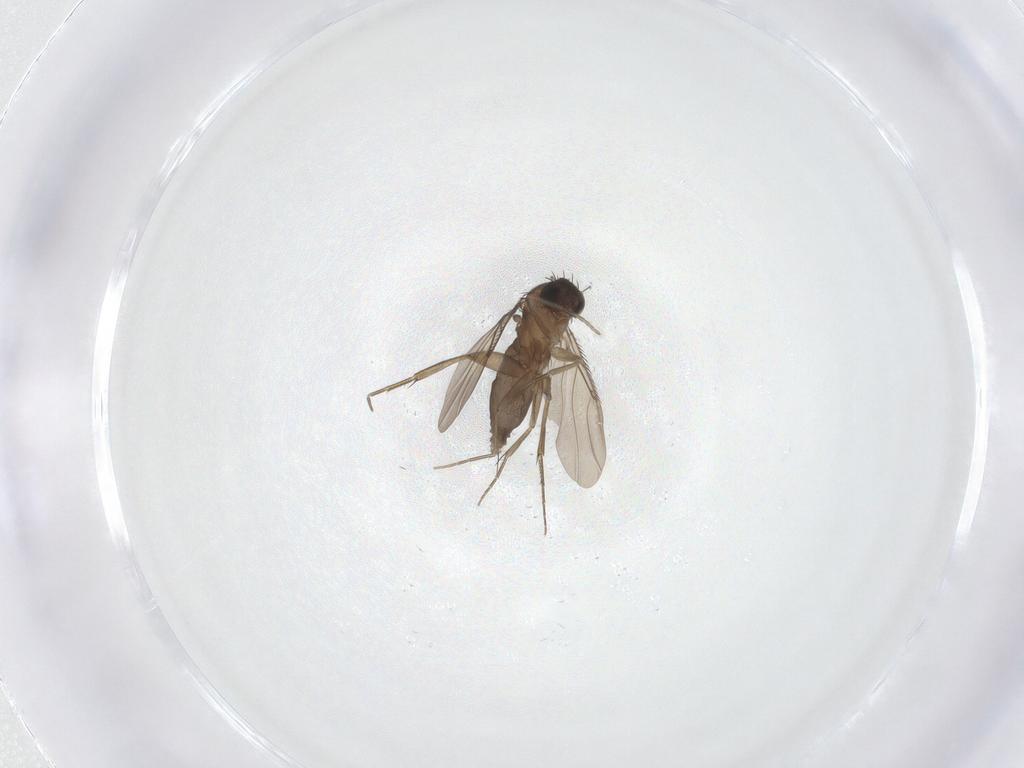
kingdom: Animalia
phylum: Arthropoda
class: Insecta
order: Diptera
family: Phoridae
